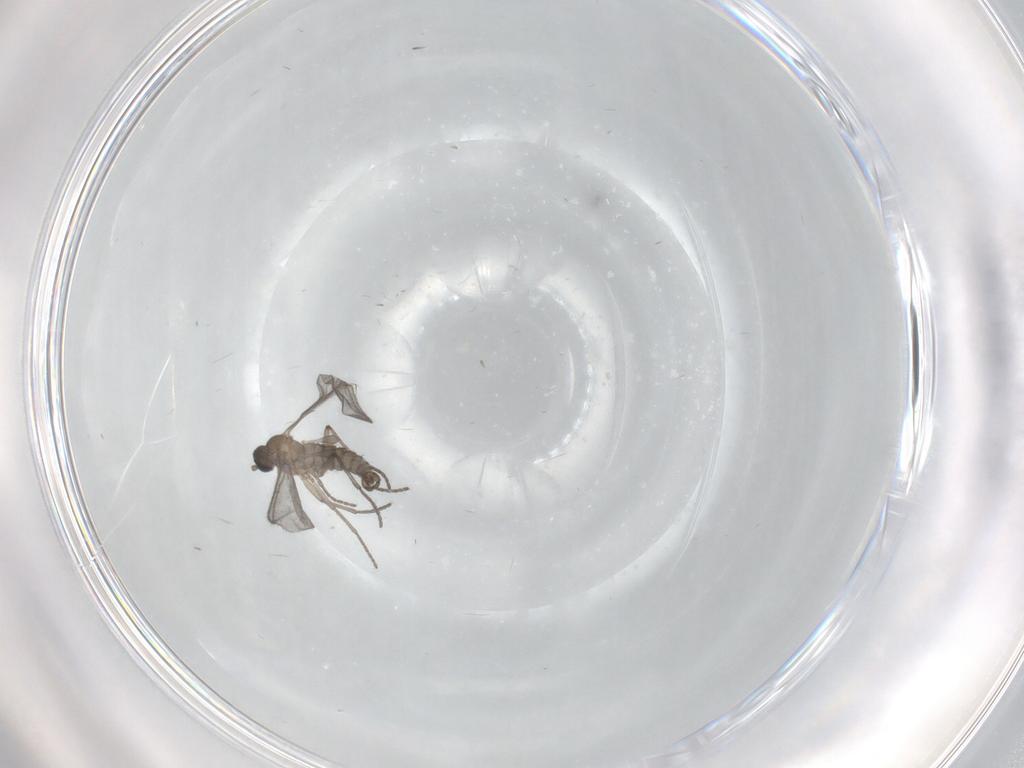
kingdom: Animalia
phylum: Arthropoda
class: Insecta
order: Diptera
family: Sciaridae
